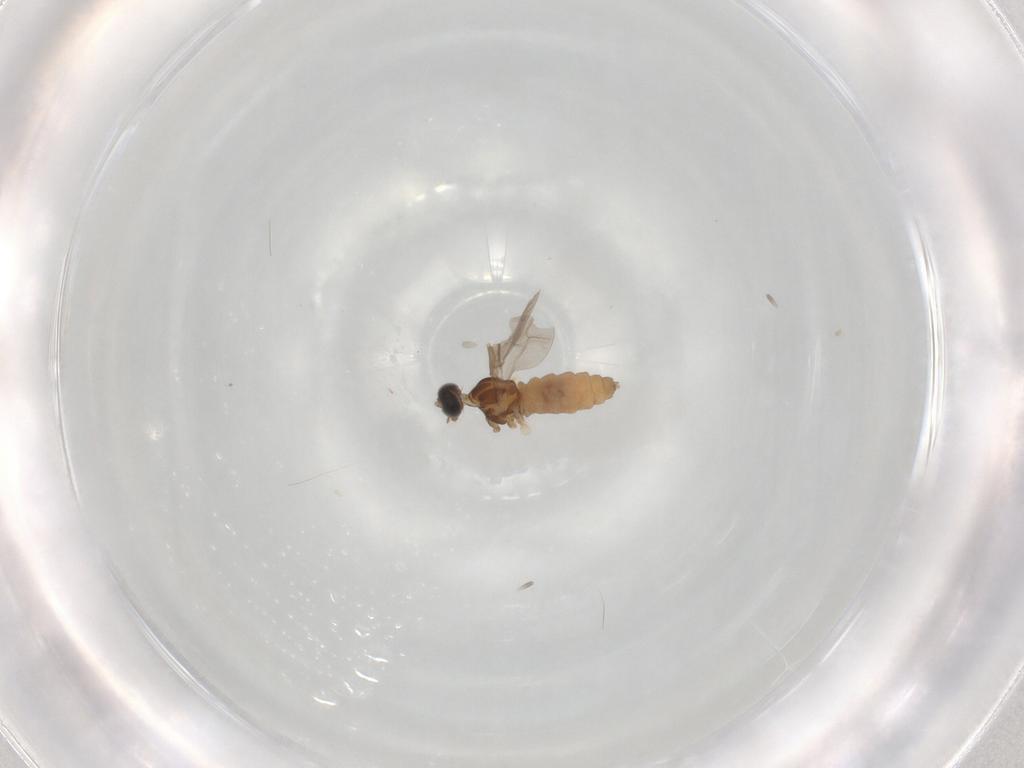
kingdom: Animalia
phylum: Arthropoda
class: Insecta
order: Diptera
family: Cecidomyiidae
